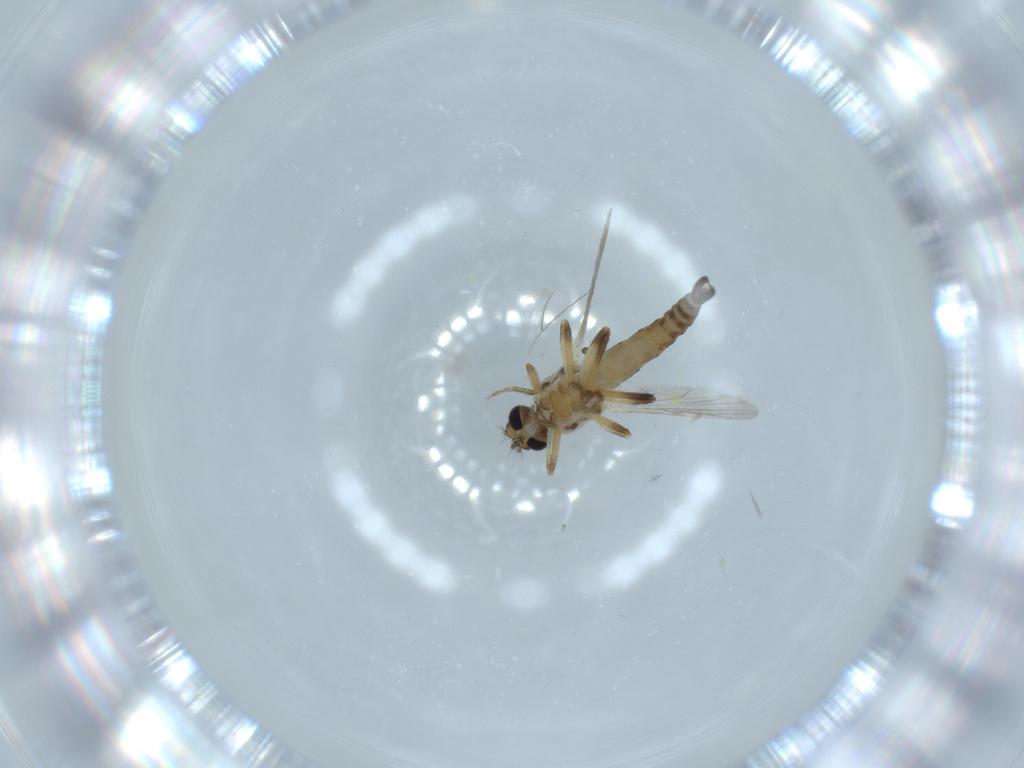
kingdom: Animalia
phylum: Arthropoda
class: Insecta
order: Diptera
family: Ceratopogonidae
